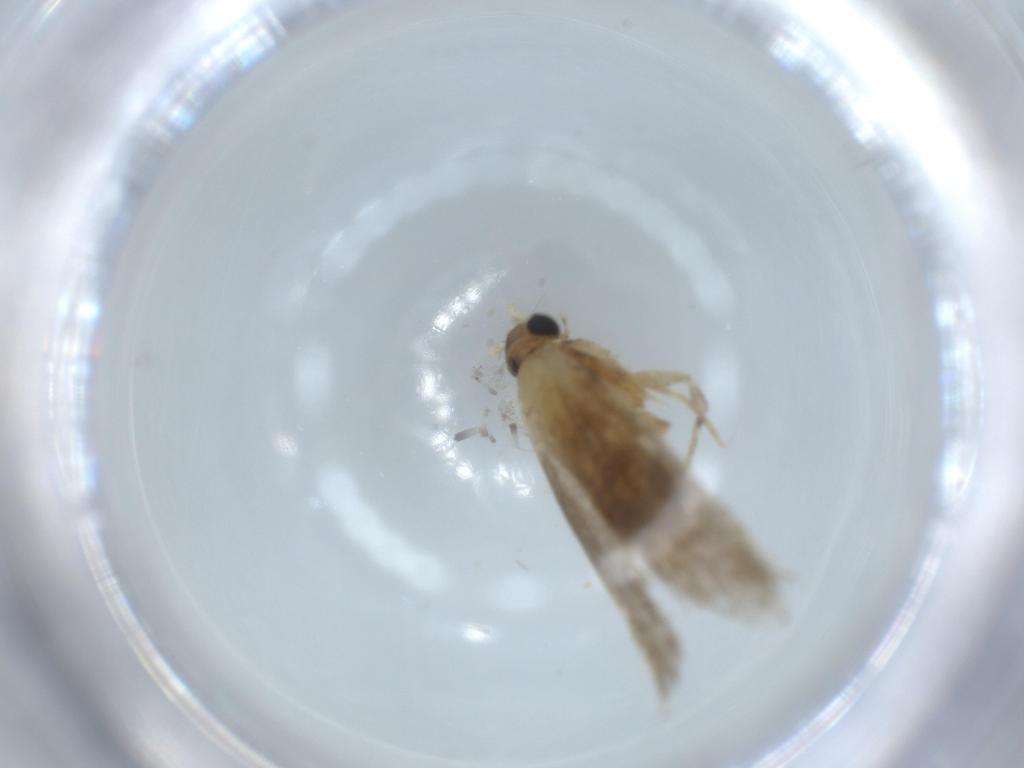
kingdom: Animalia
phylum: Arthropoda
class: Insecta
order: Lepidoptera
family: Tineidae
